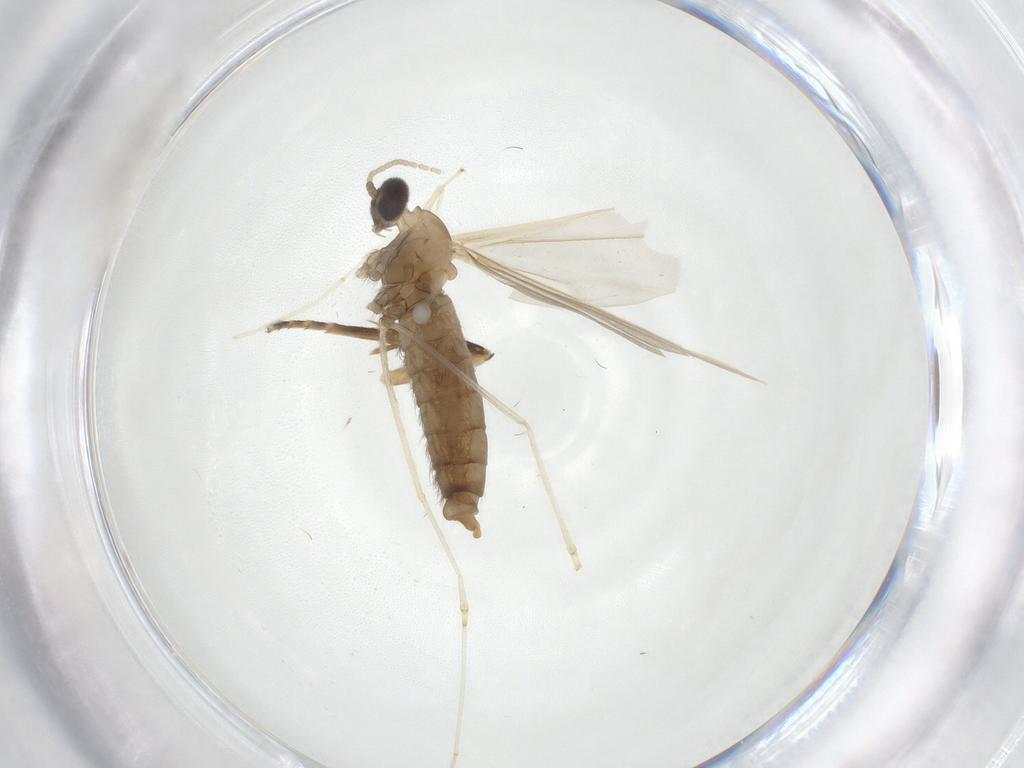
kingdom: Animalia
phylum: Arthropoda
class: Insecta
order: Diptera
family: Cecidomyiidae
